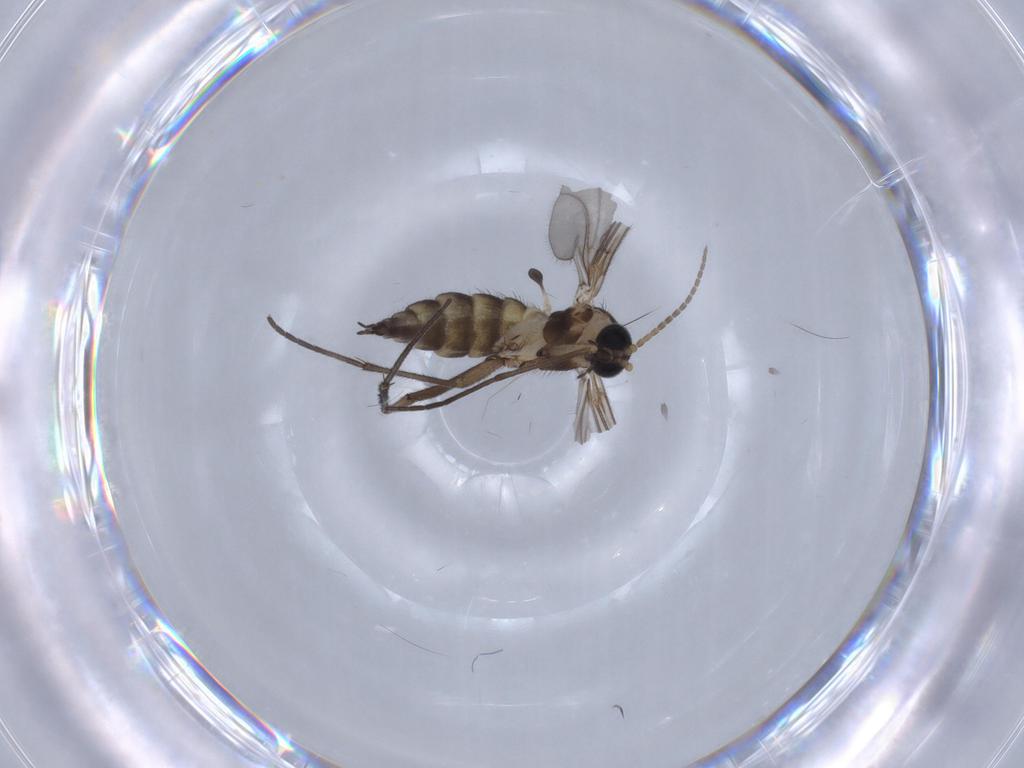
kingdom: Animalia
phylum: Arthropoda
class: Insecta
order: Diptera
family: Sciaridae
